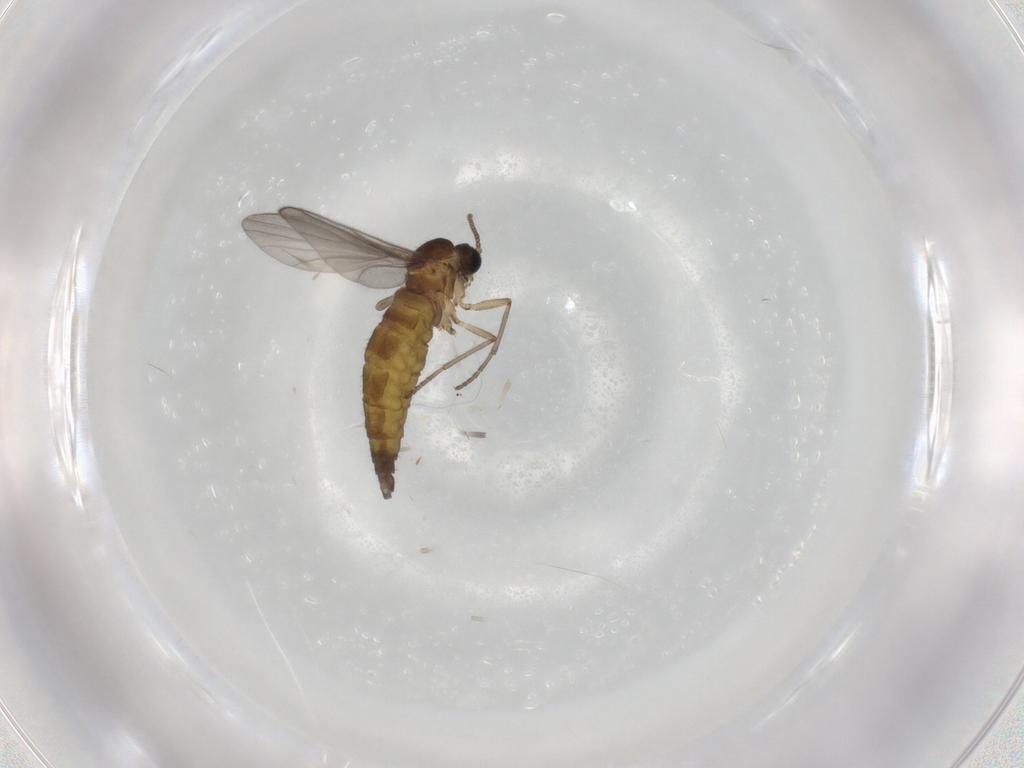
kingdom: Animalia
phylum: Arthropoda
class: Insecta
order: Diptera
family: Sciaridae
